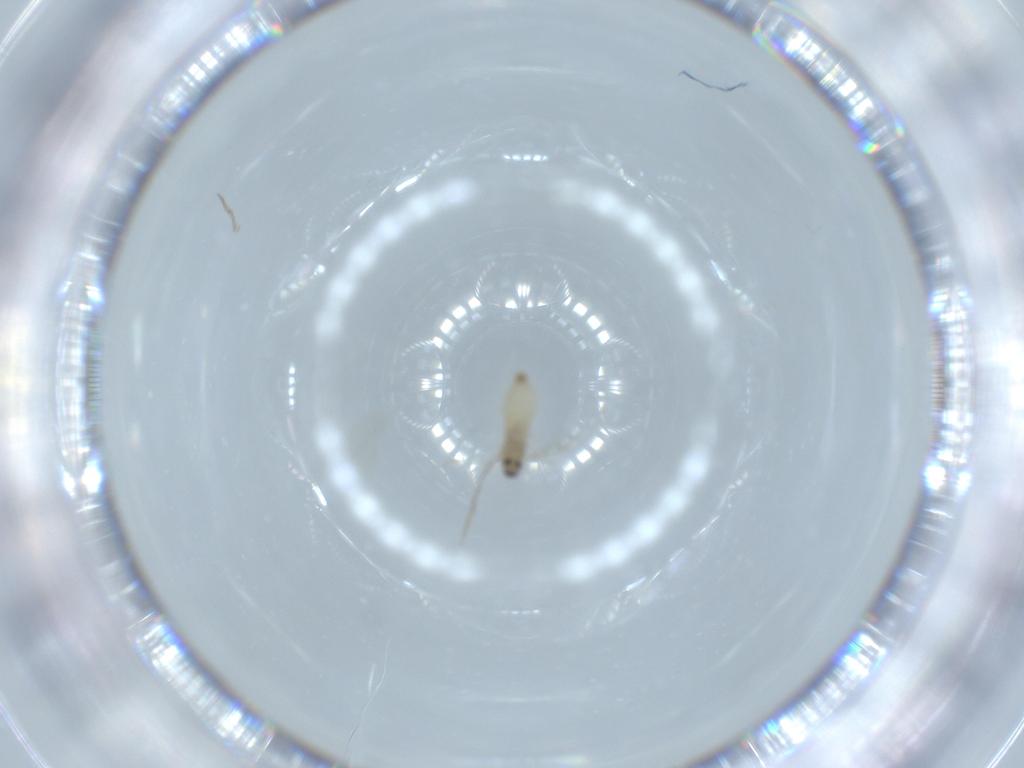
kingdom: Animalia
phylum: Arthropoda
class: Insecta
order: Diptera
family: Cecidomyiidae
